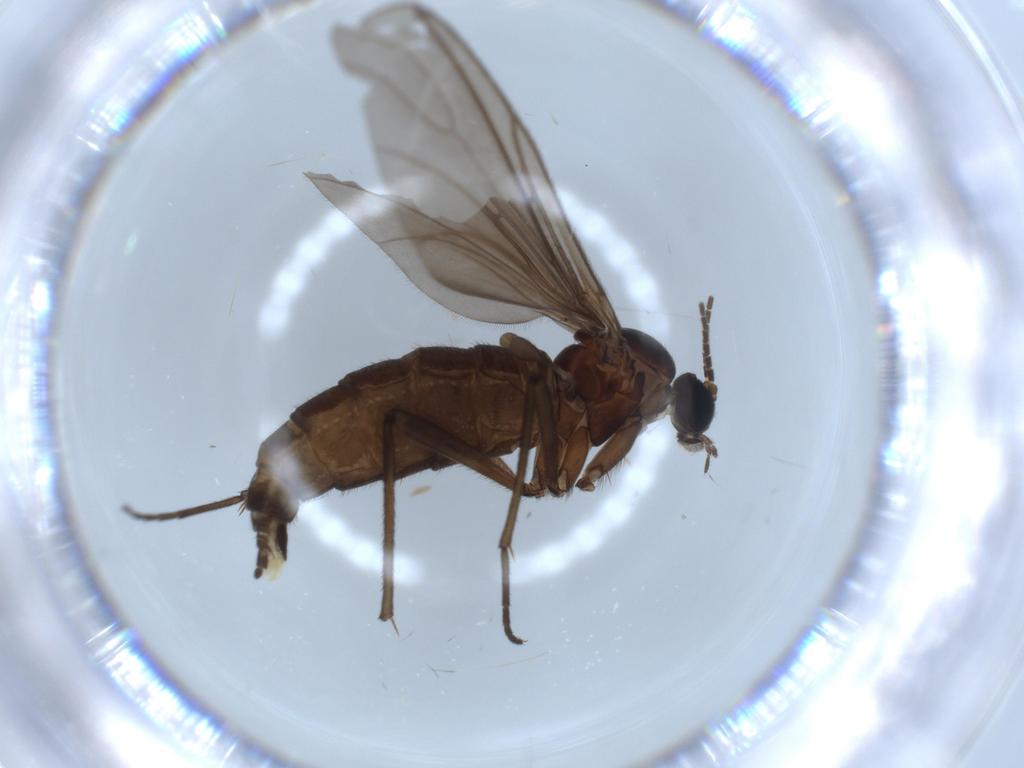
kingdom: Animalia
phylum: Arthropoda
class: Insecta
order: Diptera
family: Sciaridae
